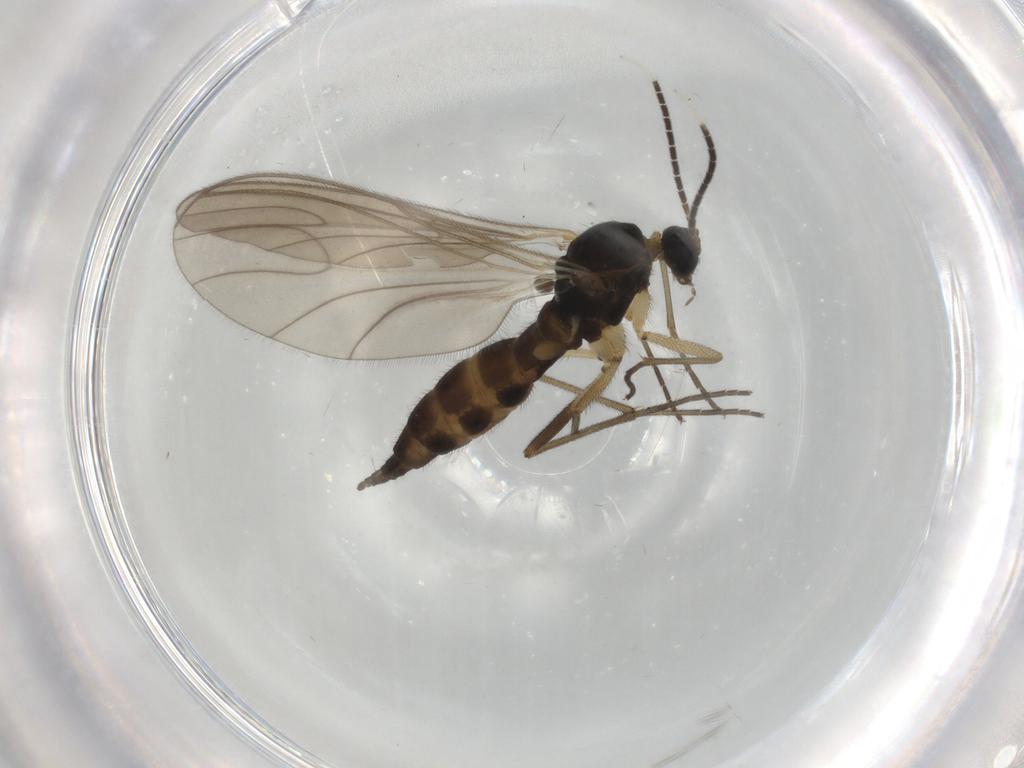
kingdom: Animalia
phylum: Arthropoda
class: Insecta
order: Diptera
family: Sciaridae
